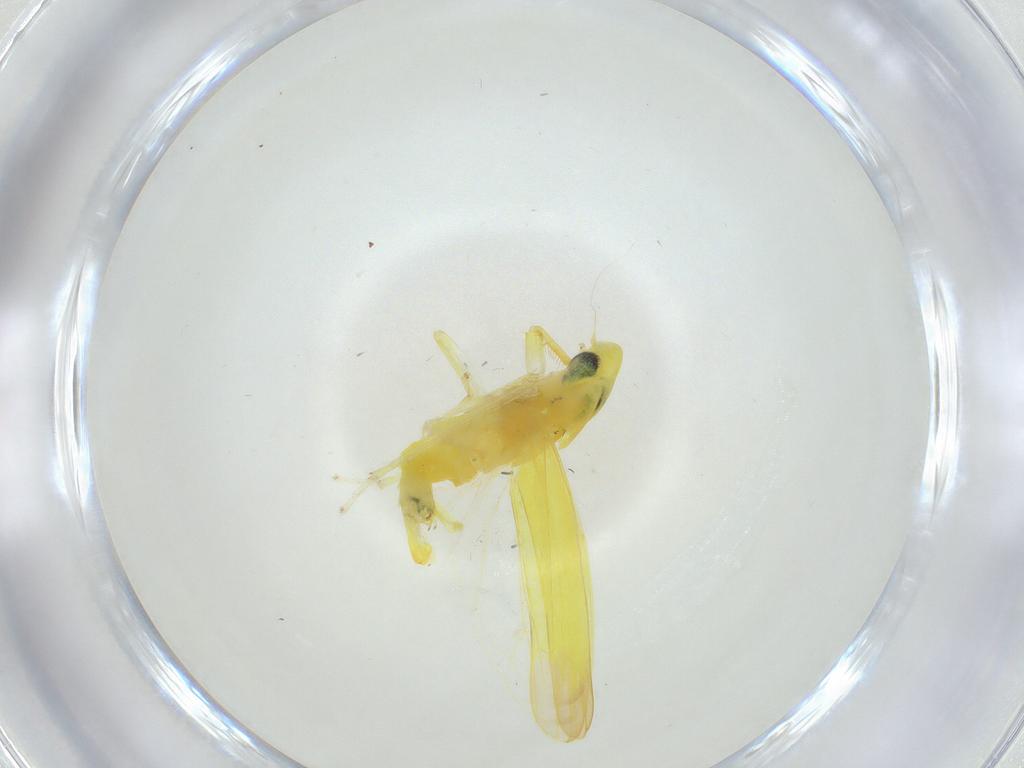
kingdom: Animalia
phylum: Arthropoda
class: Insecta
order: Hemiptera
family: Cicadellidae
